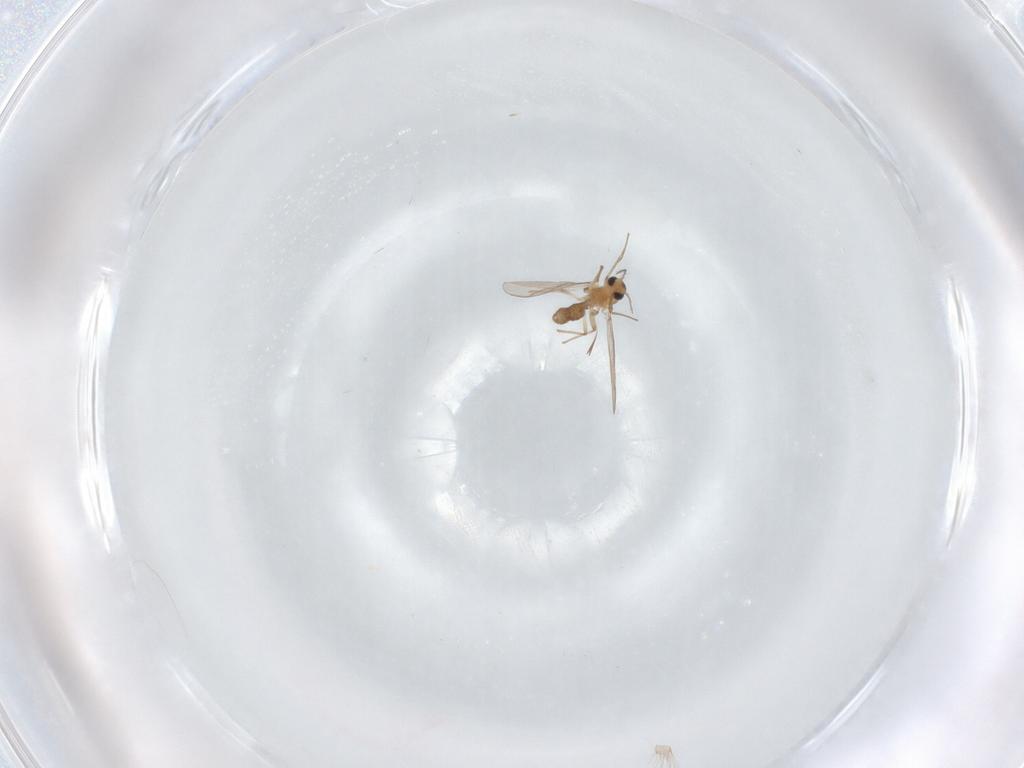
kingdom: Animalia
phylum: Arthropoda
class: Insecta
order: Diptera
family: Chironomidae
